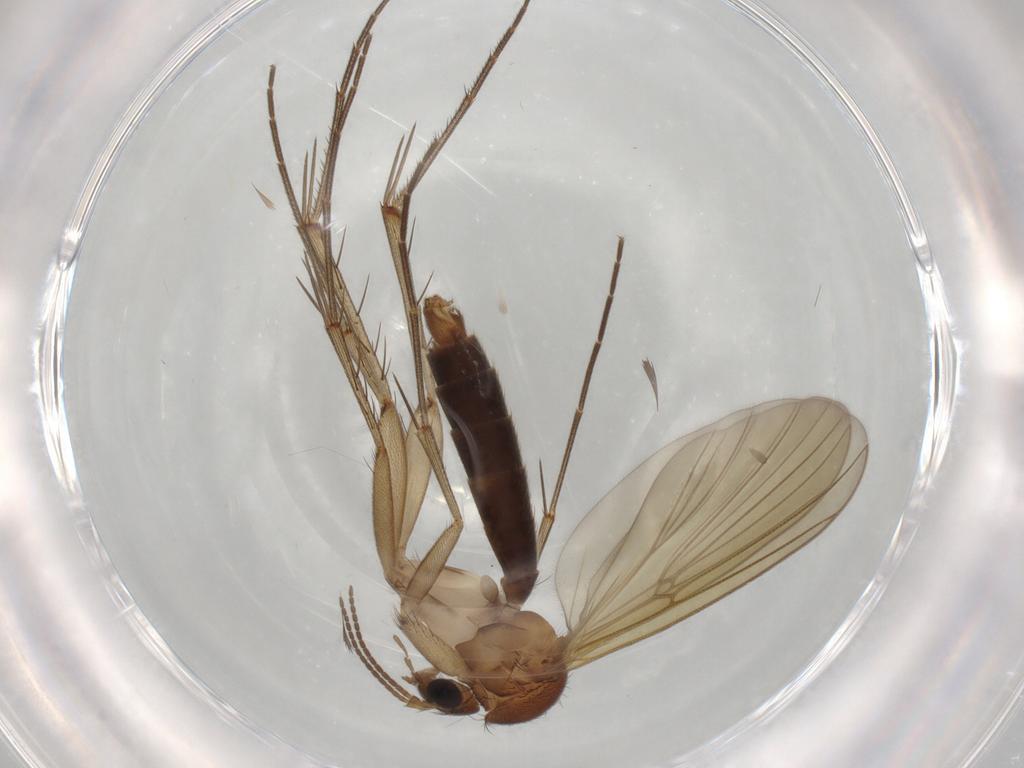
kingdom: Animalia
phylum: Arthropoda
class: Insecta
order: Diptera
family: Mycetophilidae
